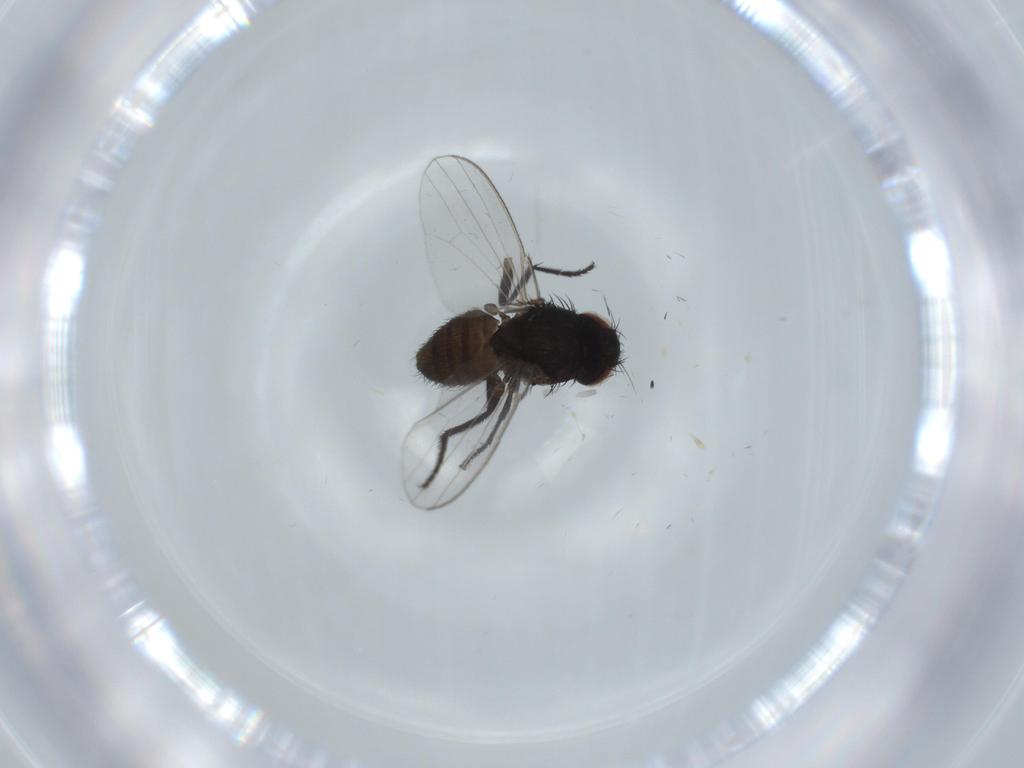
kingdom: Animalia
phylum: Arthropoda
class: Insecta
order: Diptera
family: Milichiidae
